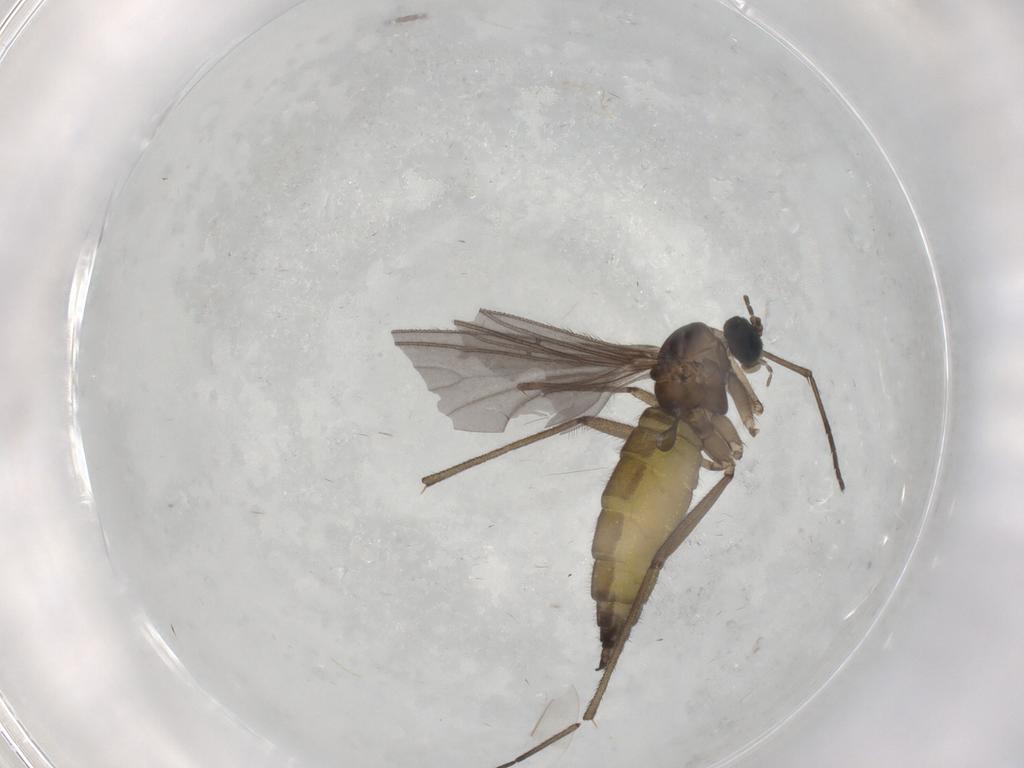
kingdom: Animalia
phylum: Arthropoda
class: Insecta
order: Diptera
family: Sciaridae
